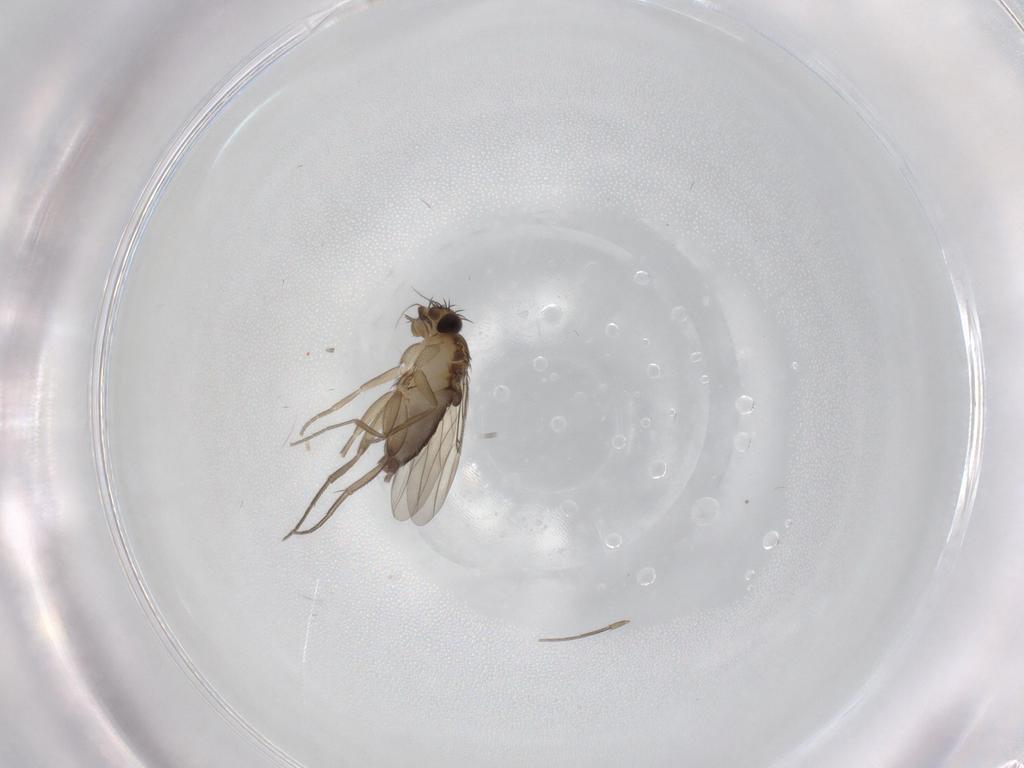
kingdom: Animalia
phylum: Arthropoda
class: Insecta
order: Diptera
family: Phoridae
